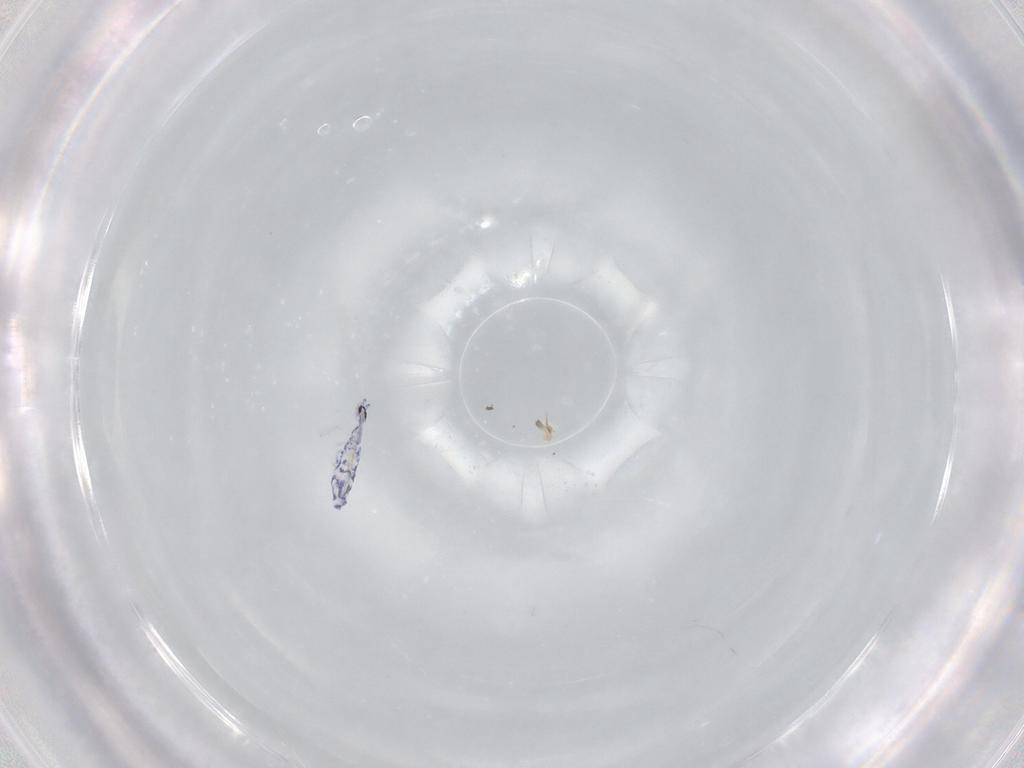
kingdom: Animalia
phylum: Arthropoda
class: Collembola
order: Entomobryomorpha
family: Entomobryidae
